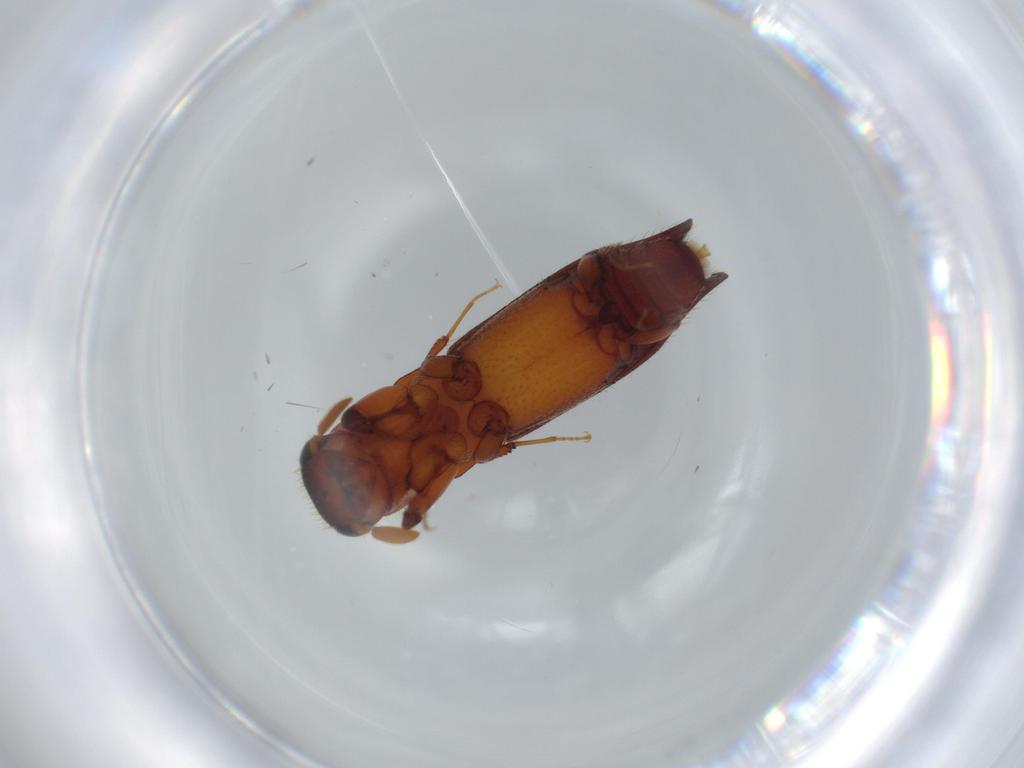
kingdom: Animalia
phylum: Arthropoda
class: Insecta
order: Coleoptera
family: Curculionidae
